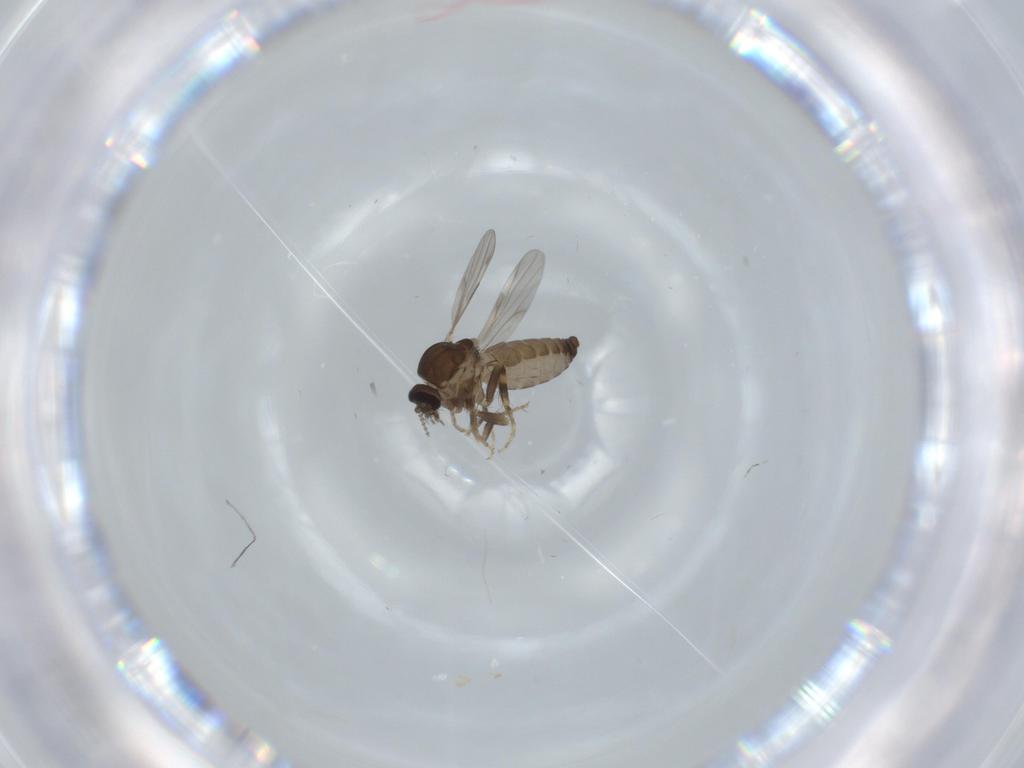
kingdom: Animalia
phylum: Arthropoda
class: Insecta
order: Diptera
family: Ceratopogonidae
